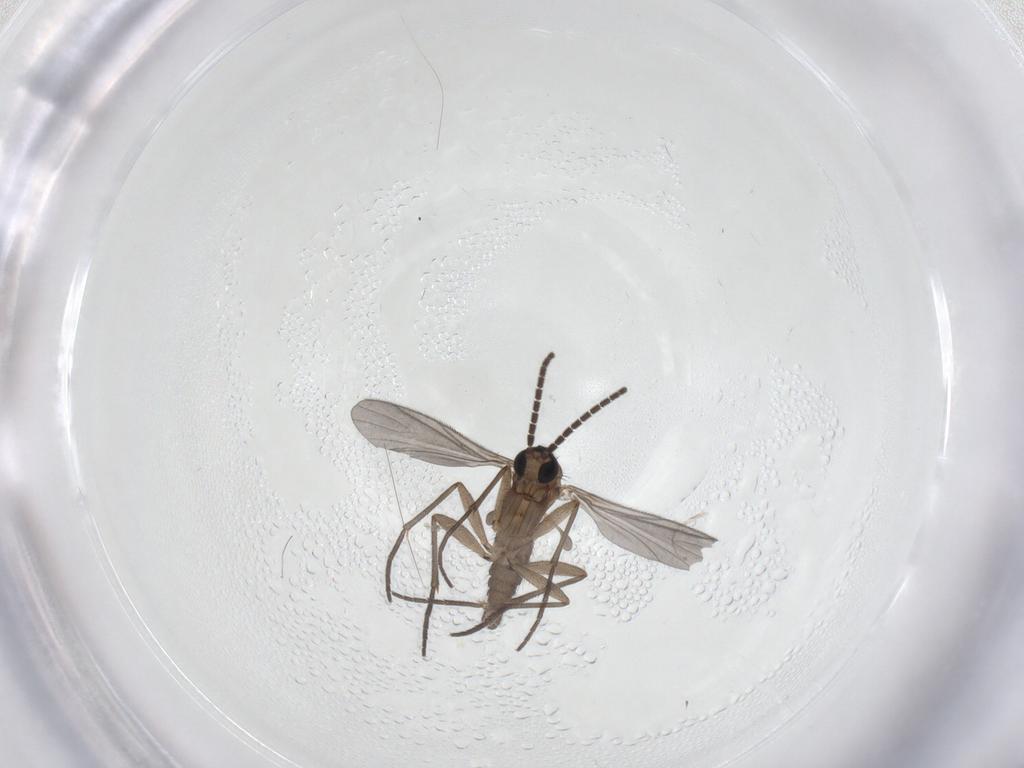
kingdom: Animalia
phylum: Arthropoda
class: Insecta
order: Diptera
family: Sciaridae
